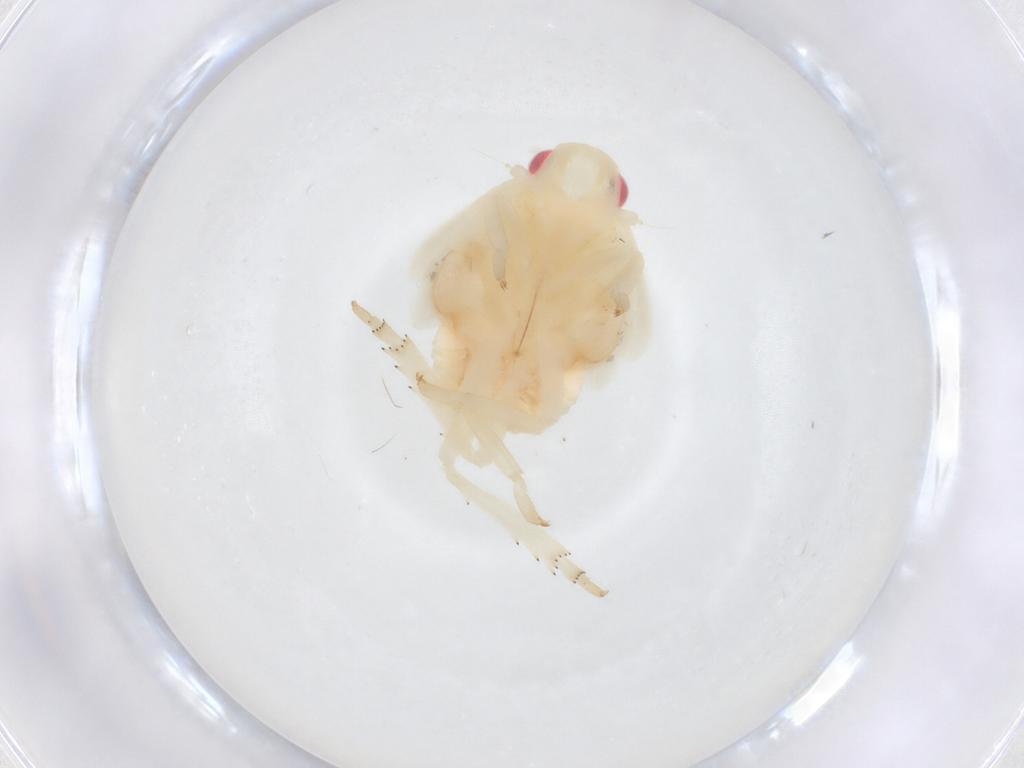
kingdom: Animalia
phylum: Arthropoda
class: Insecta
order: Hemiptera
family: Flatidae
